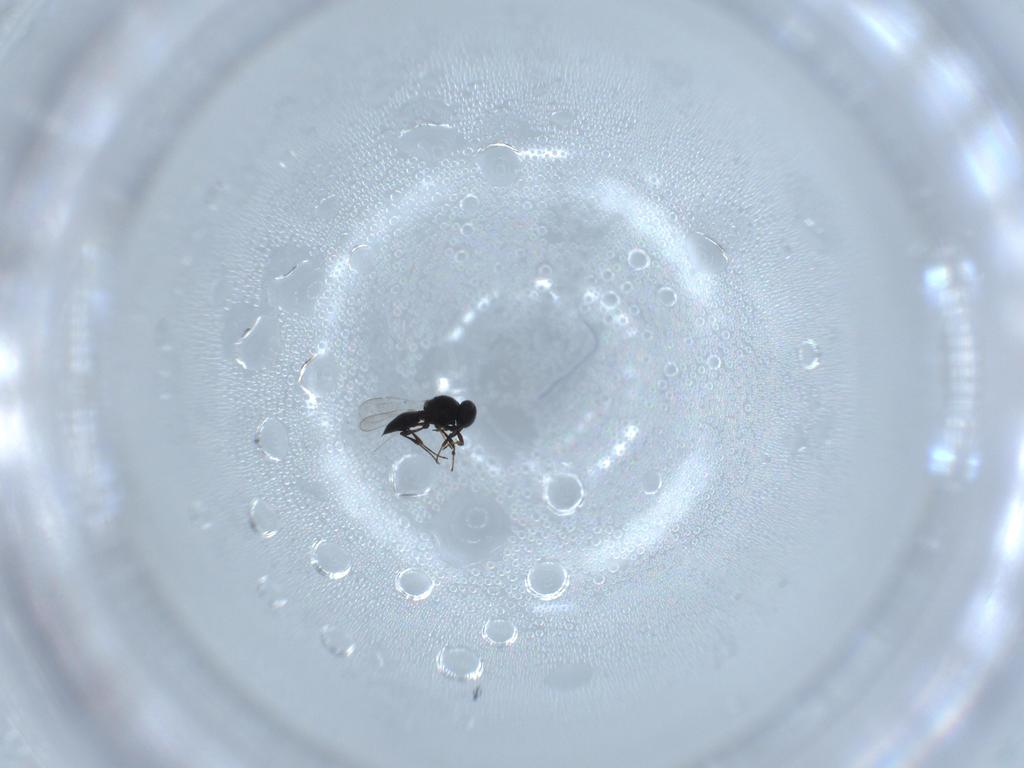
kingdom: Animalia
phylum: Arthropoda
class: Insecta
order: Hymenoptera
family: Platygastridae
